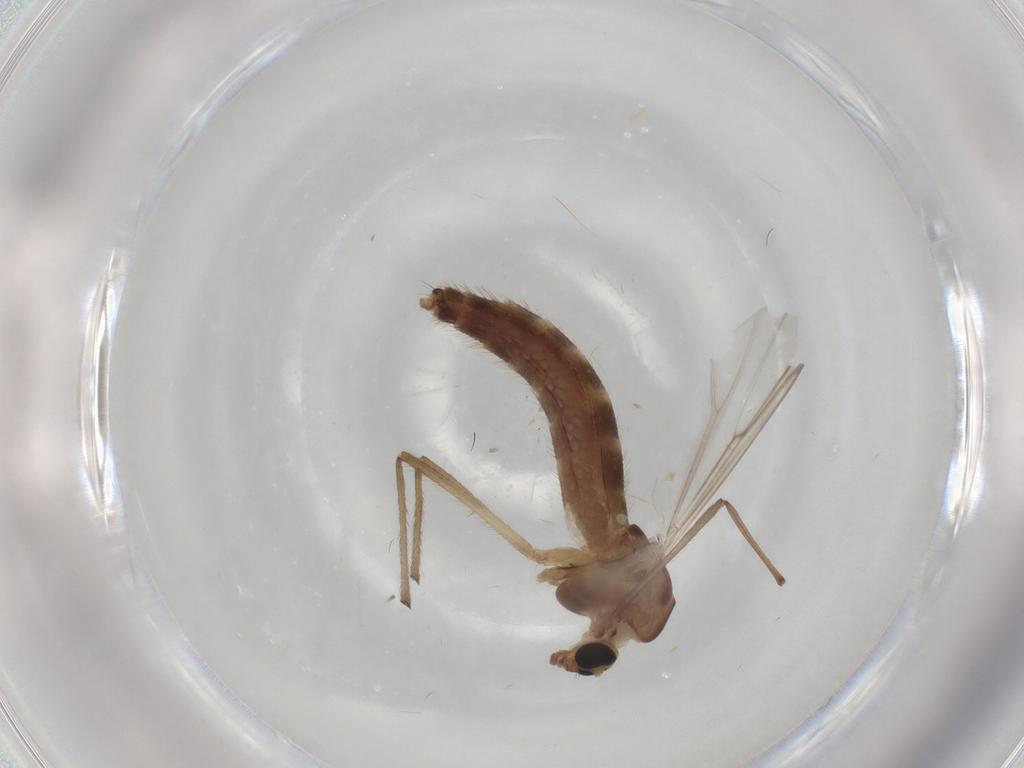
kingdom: Animalia
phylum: Arthropoda
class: Insecta
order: Diptera
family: Chironomidae
